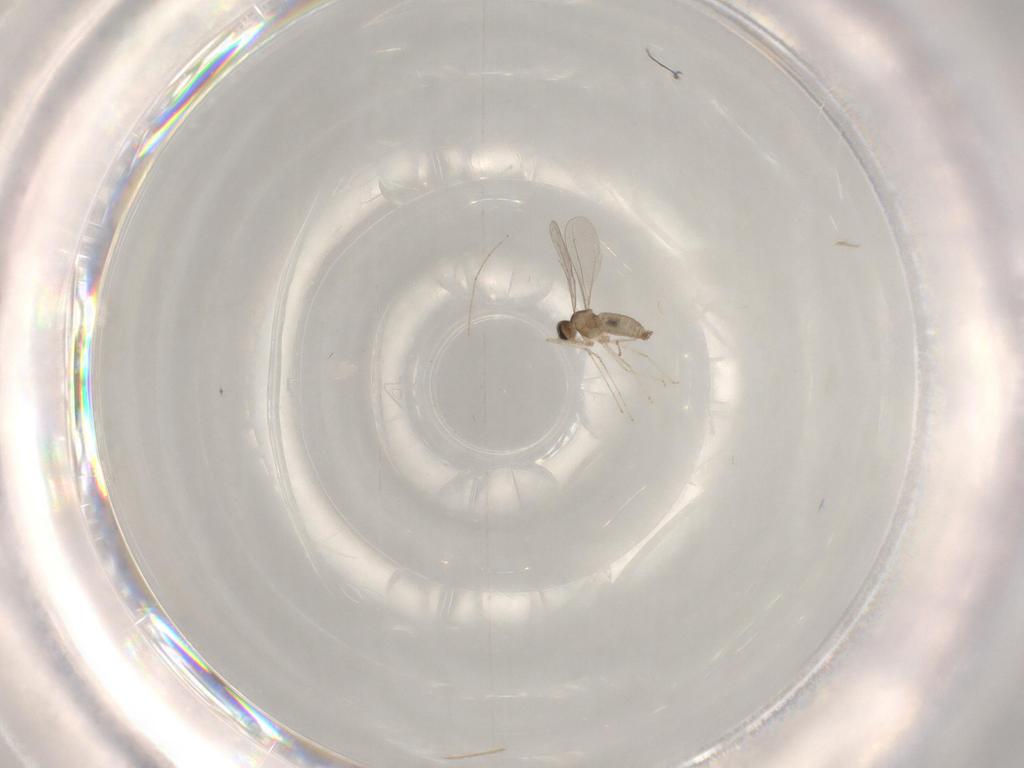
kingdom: Animalia
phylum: Arthropoda
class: Insecta
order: Diptera
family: Cecidomyiidae
